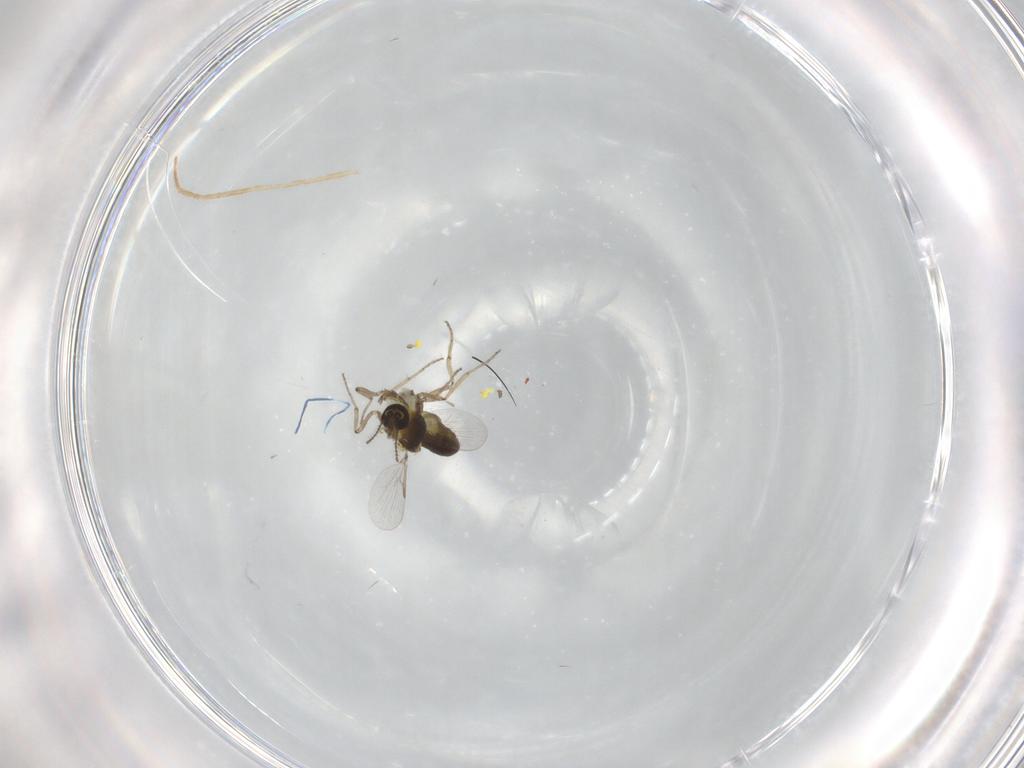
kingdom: Animalia
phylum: Arthropoda
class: Insecta
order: Diptera
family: Ceratopogonidae
